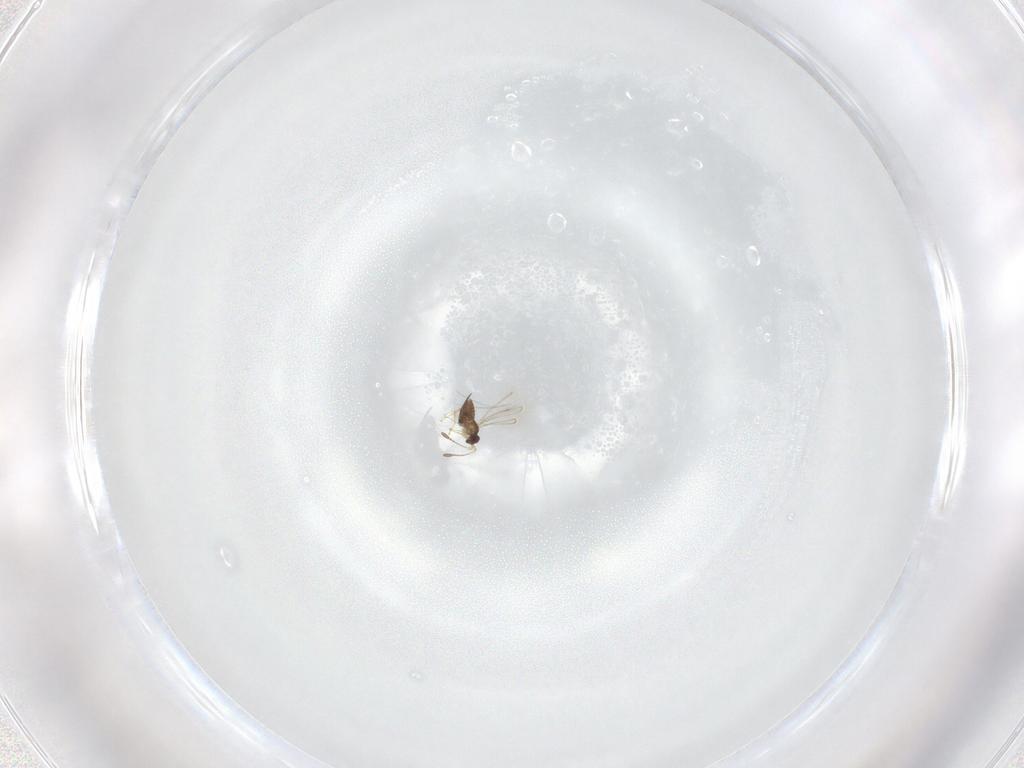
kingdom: Animalia
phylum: Arthropoda
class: Insecta
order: Hymenoptera
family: Mymaridae
